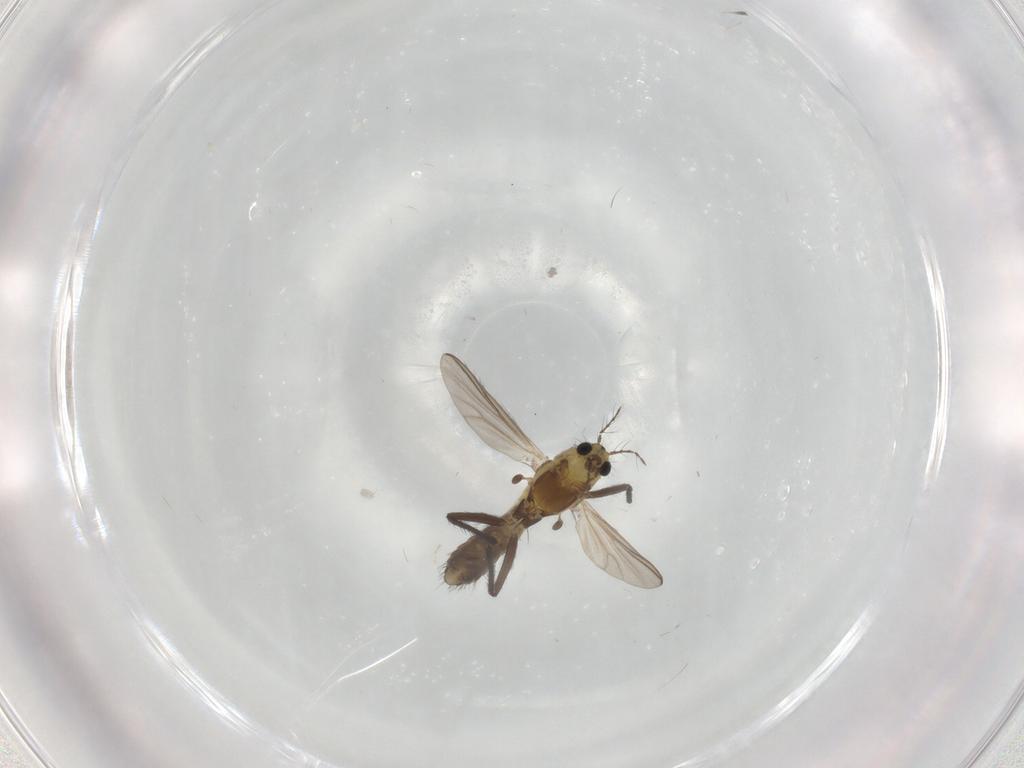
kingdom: Animalia
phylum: Arthropoda
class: Insecta
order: Diptera
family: Chironomidae
